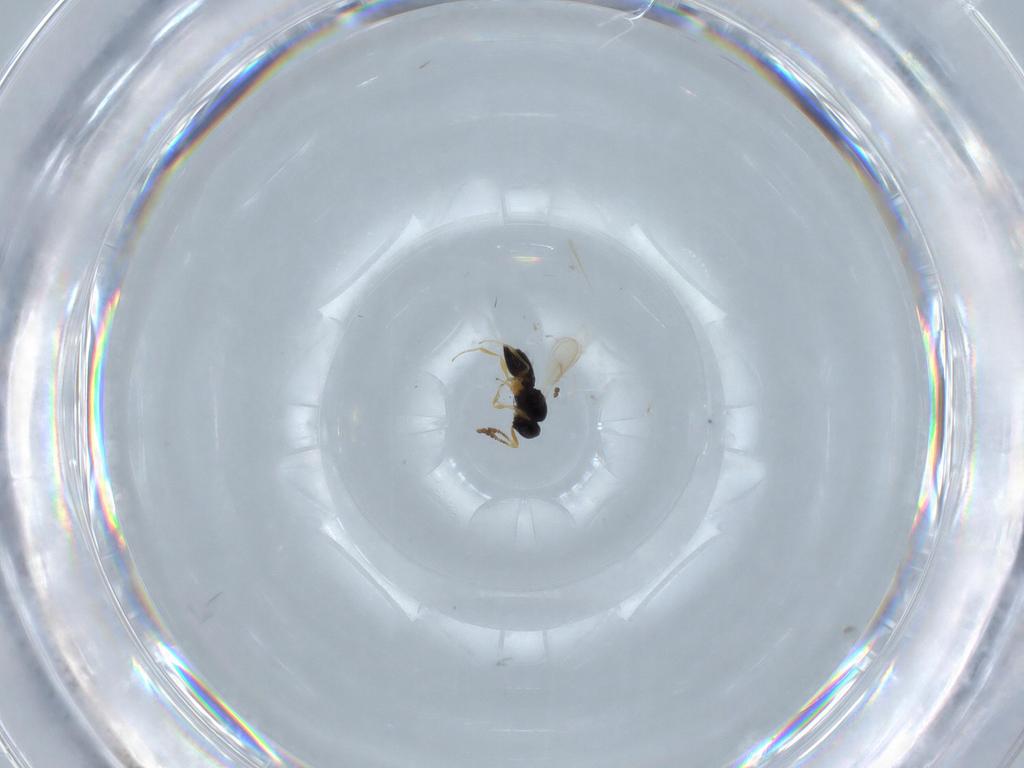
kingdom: Animalia
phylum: Arthropoda
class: Insecta
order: Hymenoptera
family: Scelionidae
